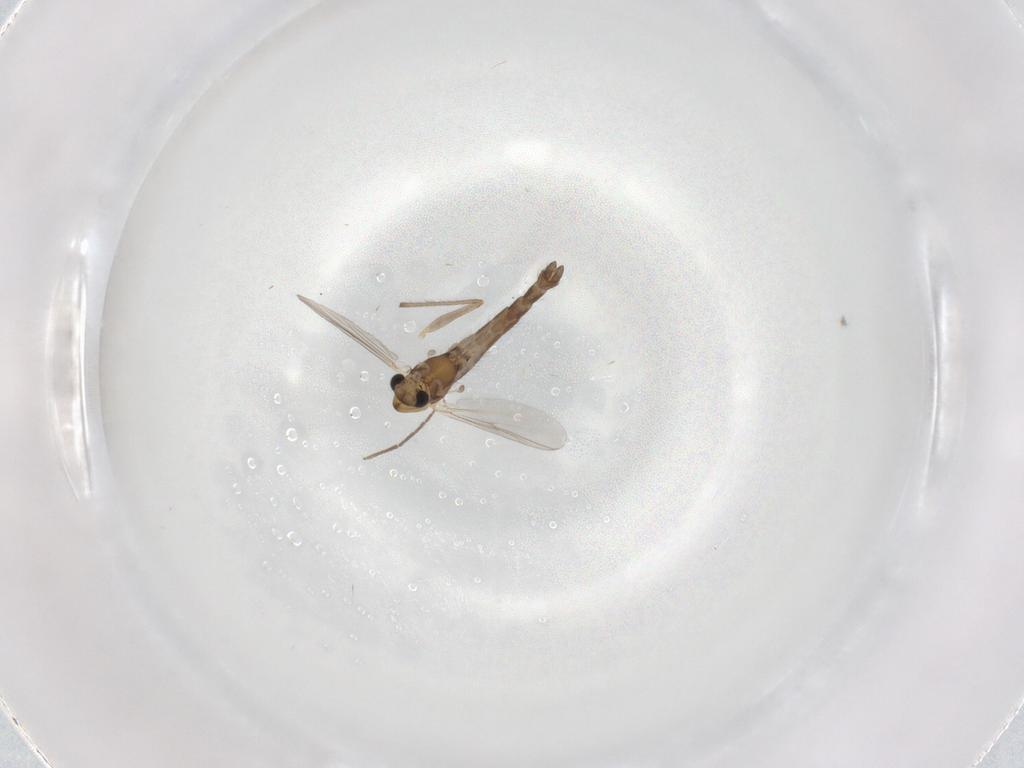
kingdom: Animalia
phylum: Arthropoda
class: Insecta
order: Diptera
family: Chironomidae
